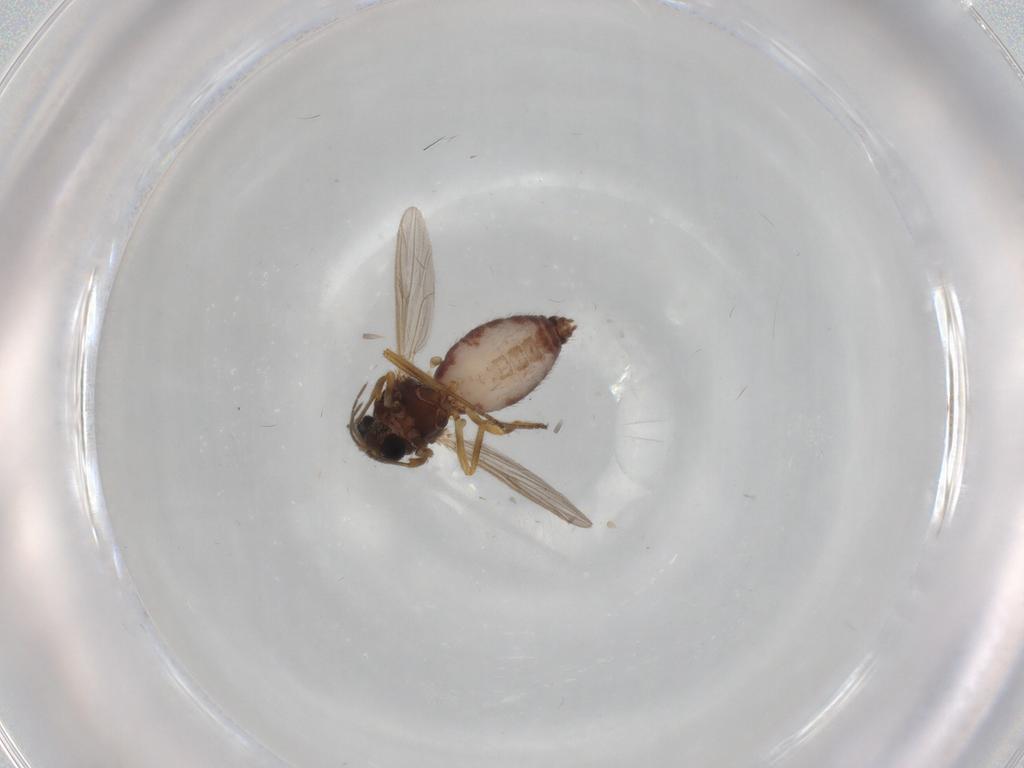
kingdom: Animalia
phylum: Arthropoda
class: Insecta
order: Diptera
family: Ceratopogonidae
